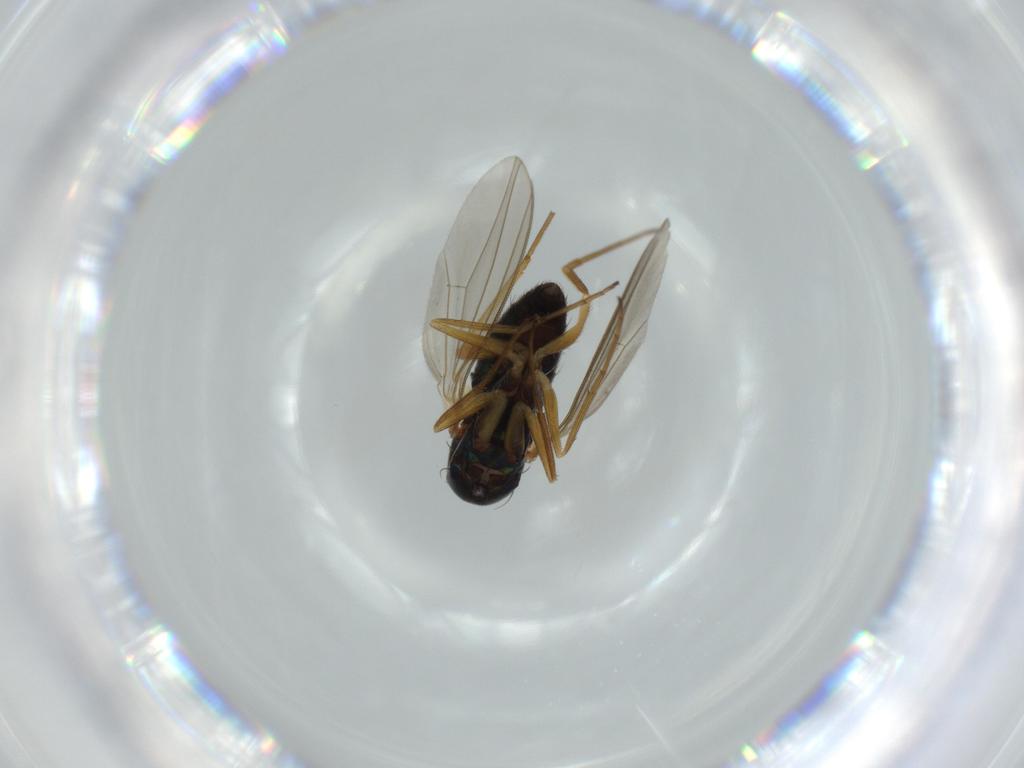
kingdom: Animalia
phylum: Arthropoda
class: Insecta
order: Diptera
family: Dolichopodidae
